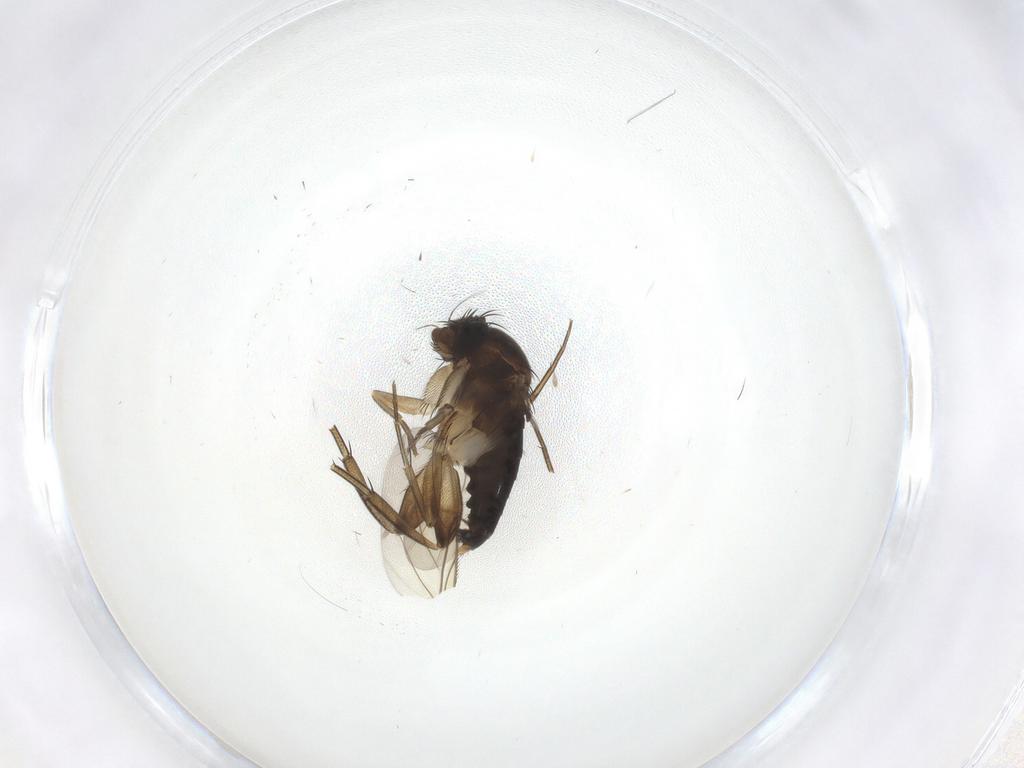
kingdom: Animalia
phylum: Arthropoda
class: Insecta
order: Diptera
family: Phoridae
